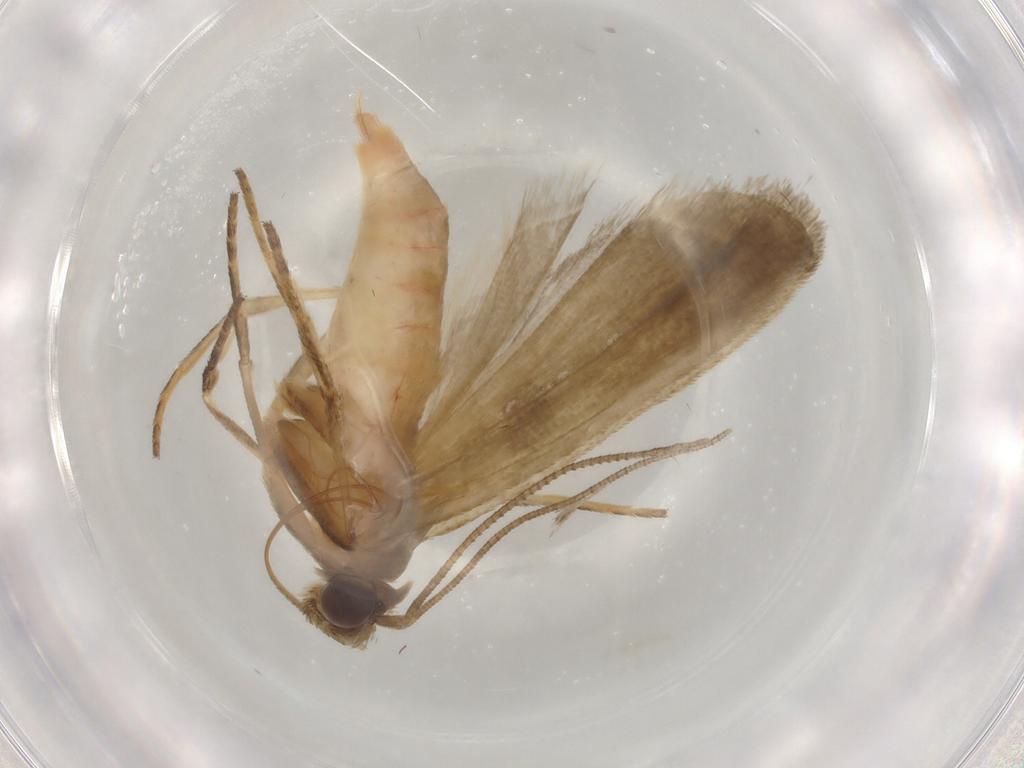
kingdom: Animalia
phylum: Arthropoda
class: Insecta
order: Lepidoptera
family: Noctuidae
